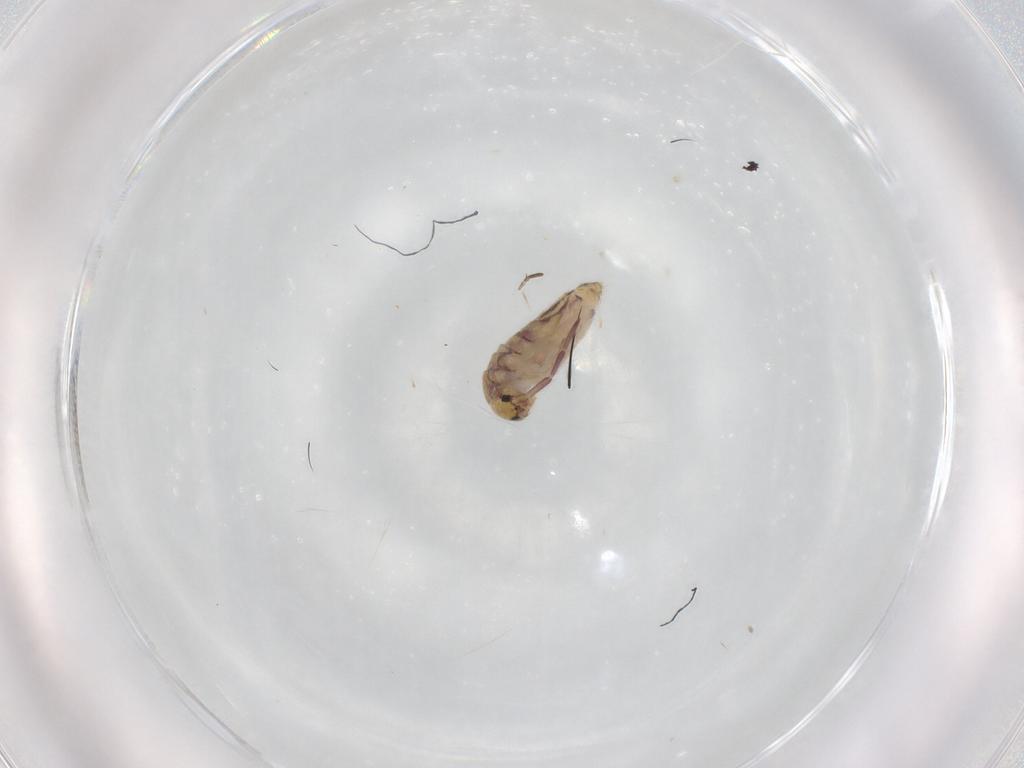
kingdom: Animalia
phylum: Arthropoda
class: Collembola
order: Entomobryomorpha
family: Entomobryidae
